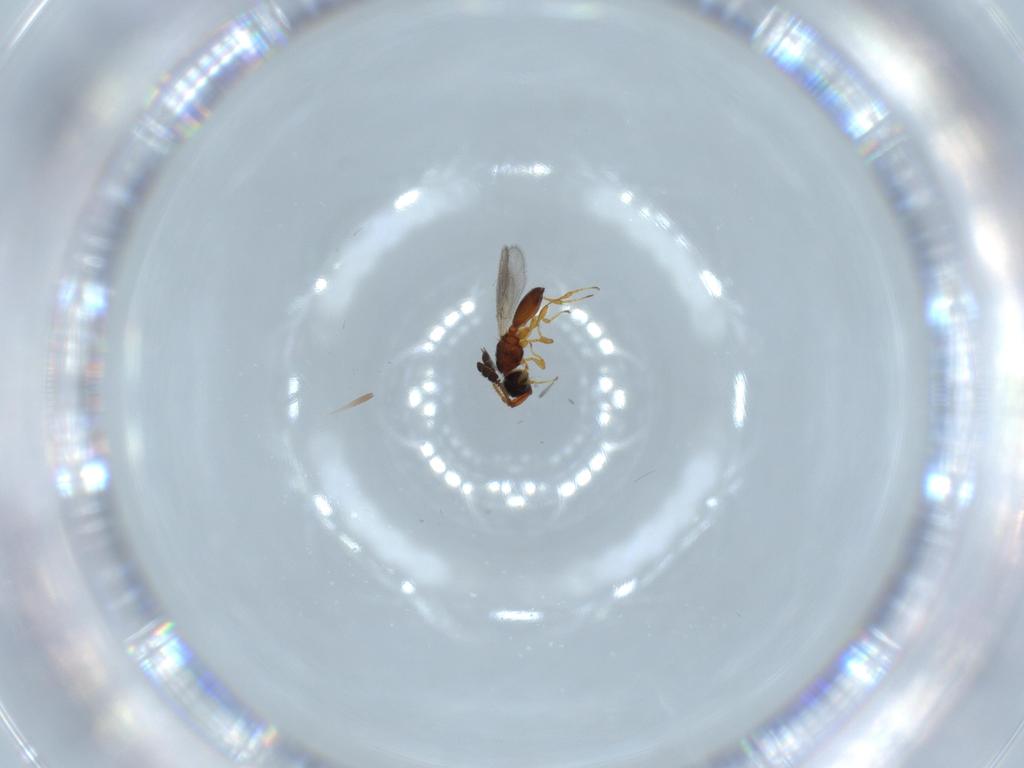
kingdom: Animalia
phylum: Arthropoda
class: Insecta
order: Hymenoptera
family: Diapriidae
